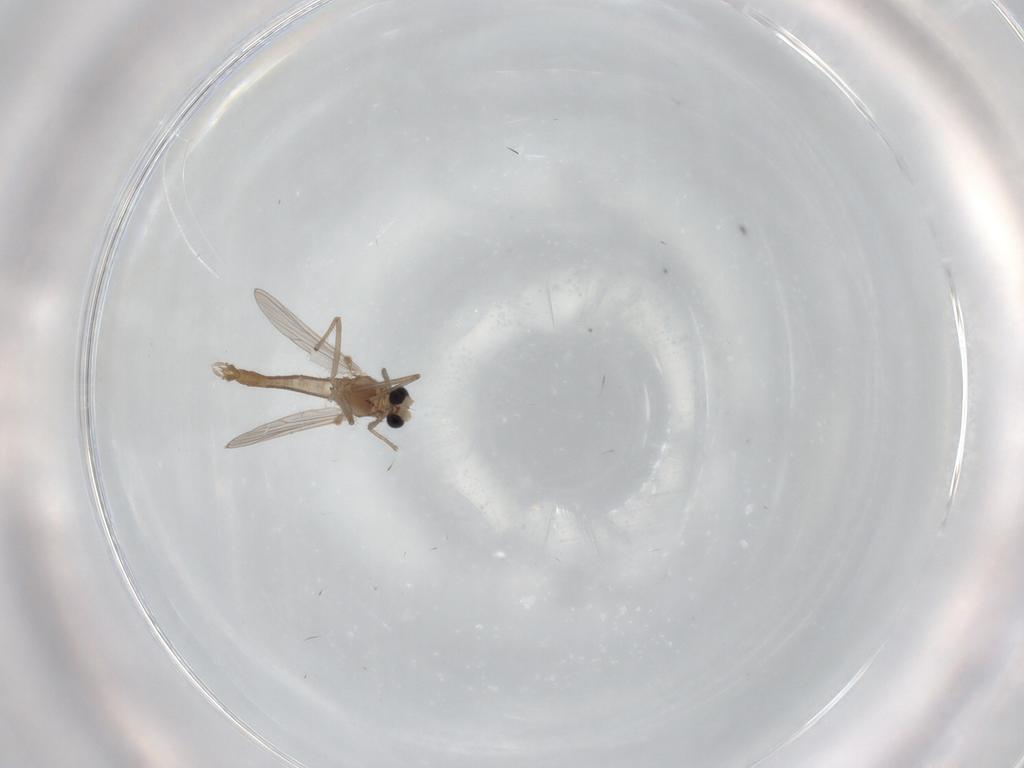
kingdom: Animalia
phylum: Arthropoda
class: Insecta
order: Diptera
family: Chironomidae
